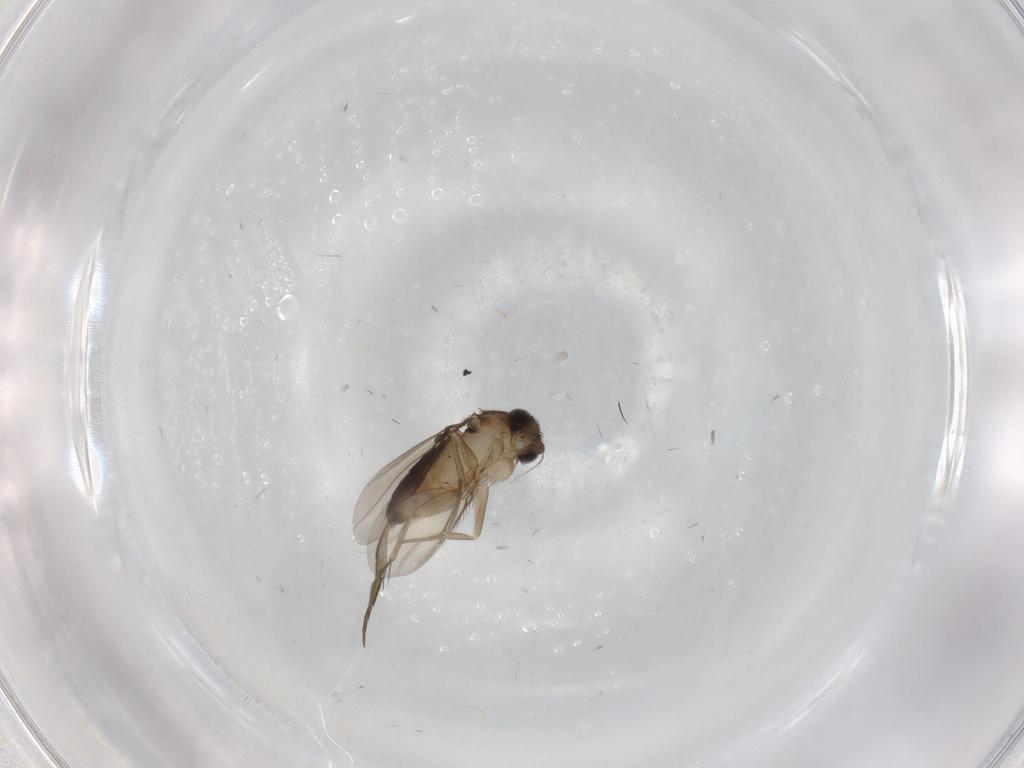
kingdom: Animalia
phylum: Arthropoda
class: Insecta
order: Diptera
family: Phoridae
